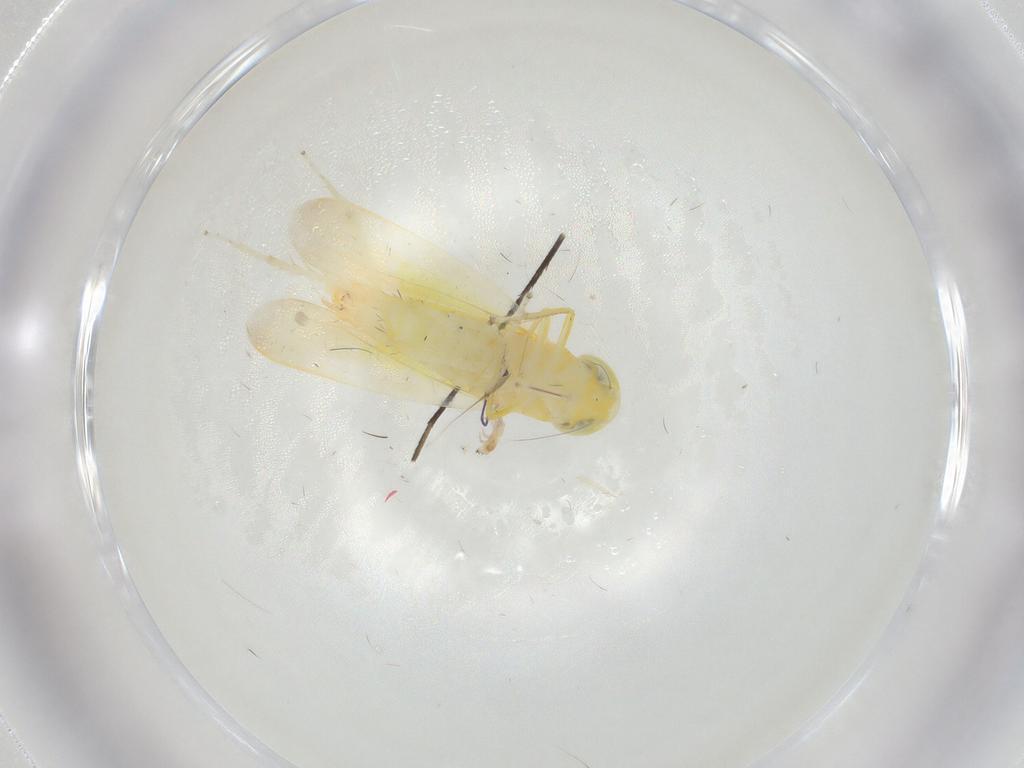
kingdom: Animalia
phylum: Arthropoda
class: Insecta
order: Hemiptera
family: Cicadellidae
